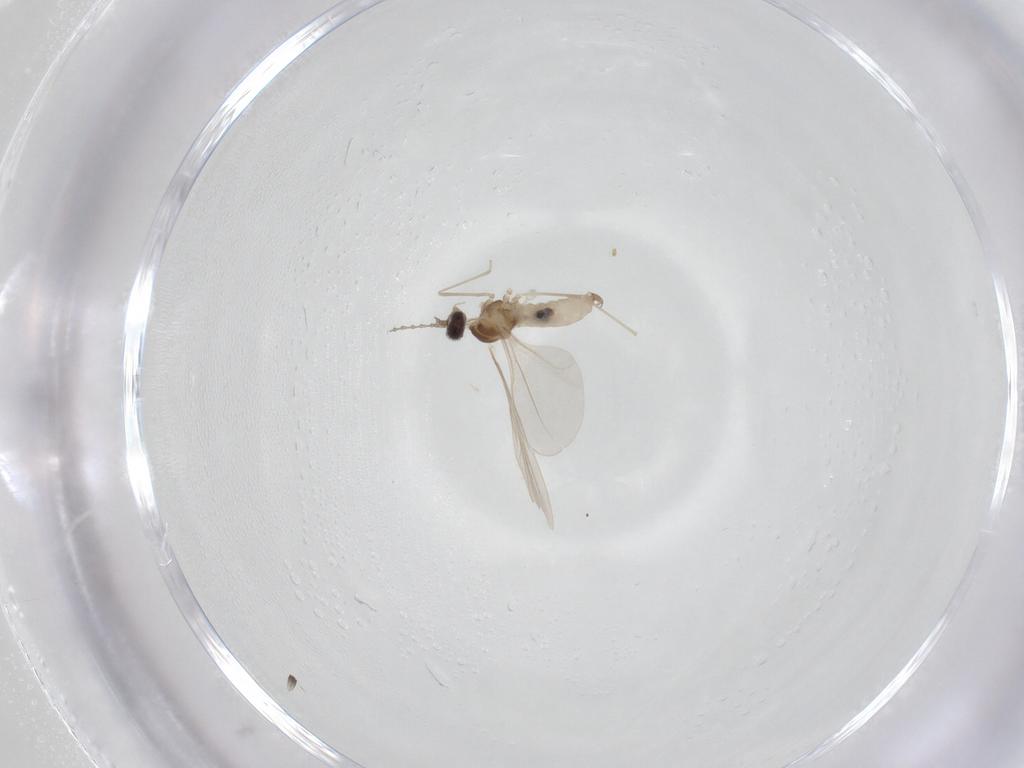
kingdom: Animalia
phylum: Arthropoda
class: Insecta
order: Diptera
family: Cecidomyiidae
